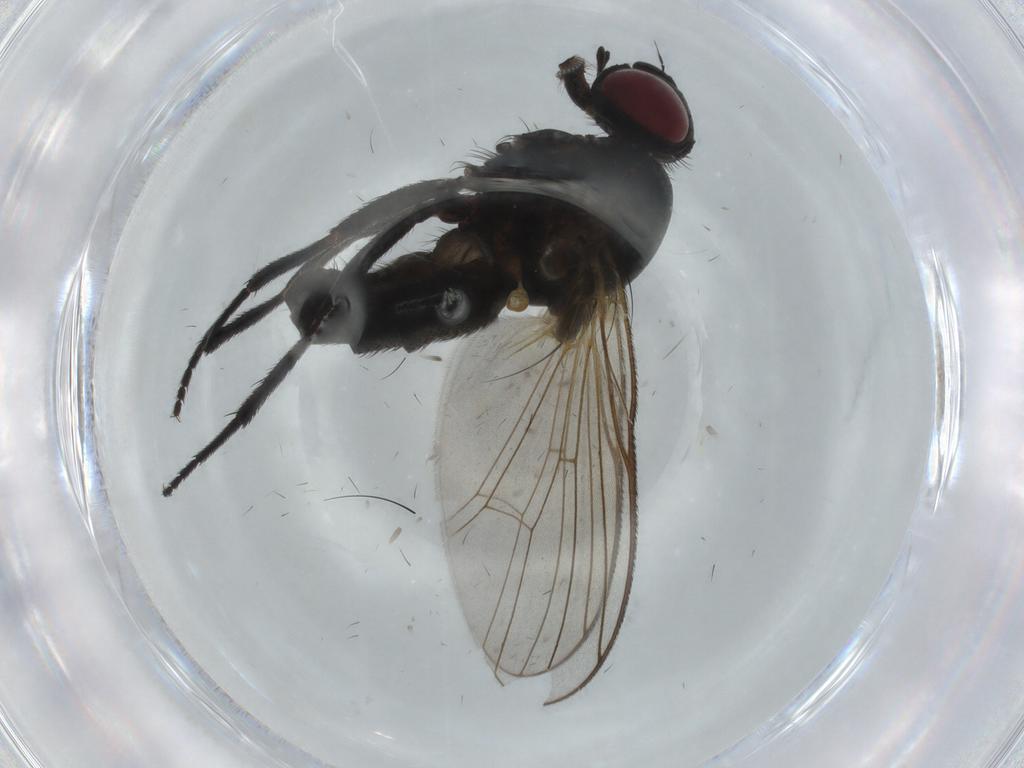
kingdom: Animalia
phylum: Arthropoda
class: Insecta
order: Diptera
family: Fannia
